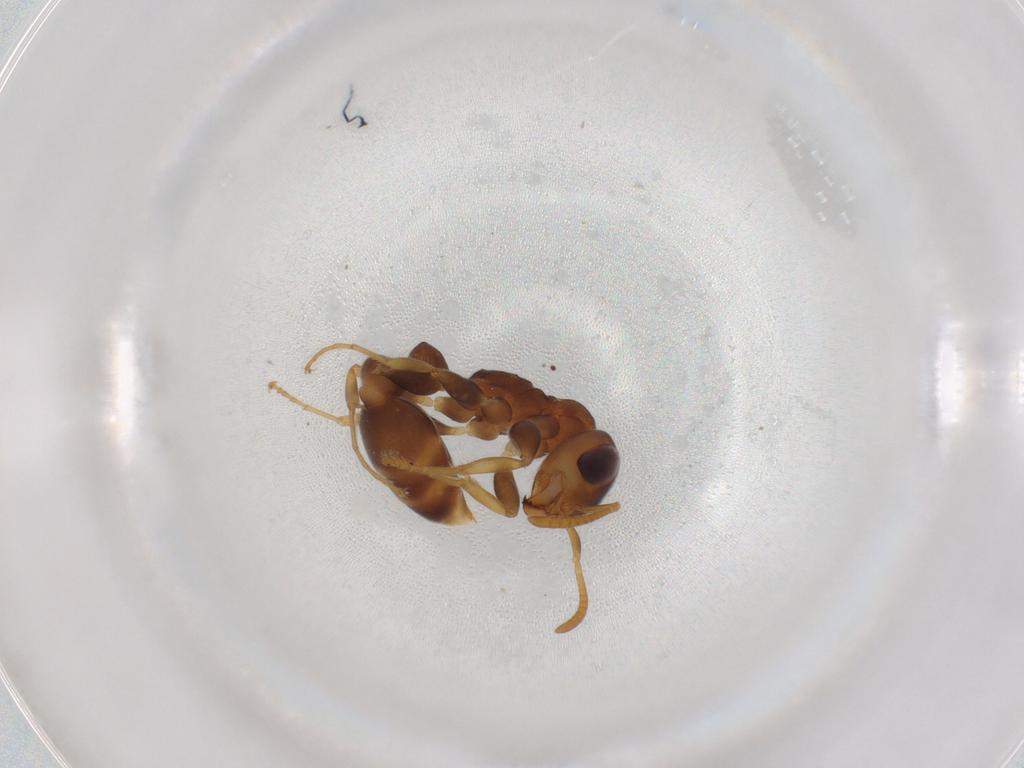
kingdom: Animalia
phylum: Arthropoda
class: Insecta
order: Hymenoptera
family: Formicidae
